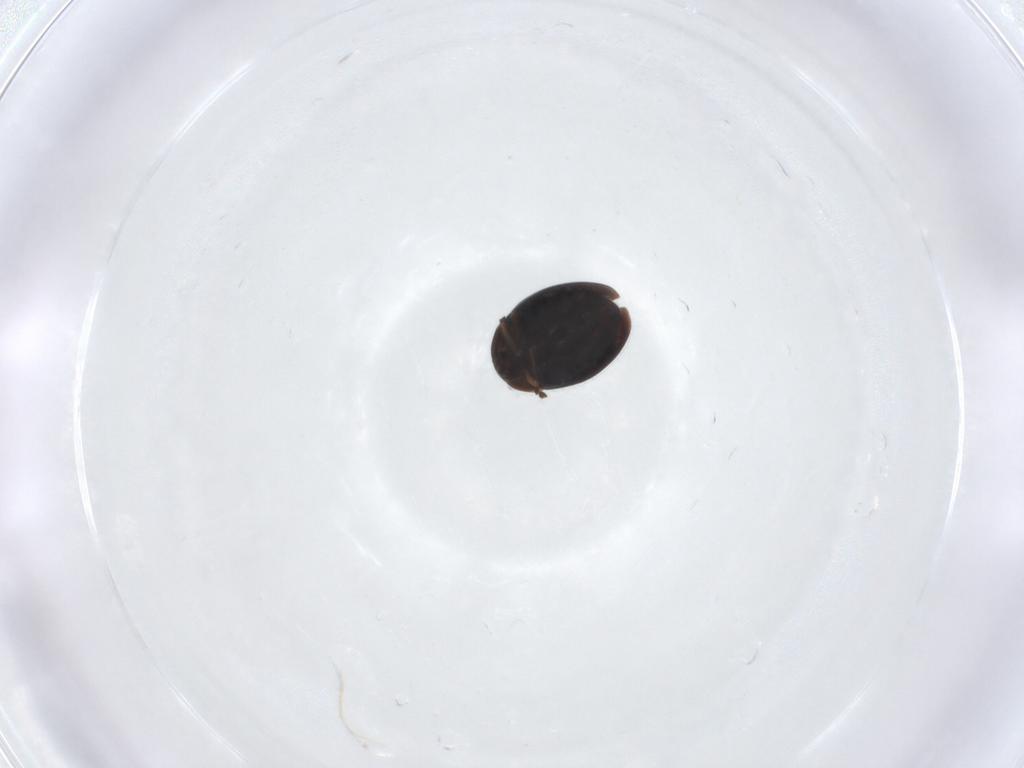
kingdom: Animalia
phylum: Arthropoda
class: Insecta
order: Coleoptera
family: Corylophidae
